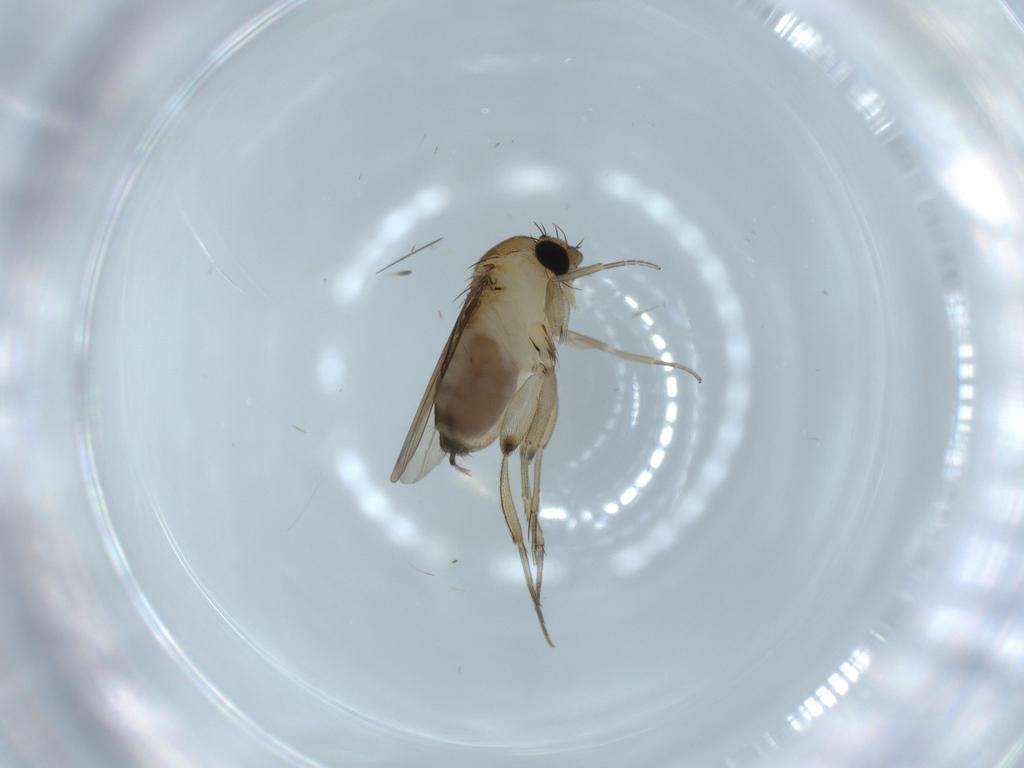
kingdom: Animalia
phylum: Arthropoda
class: Insecta
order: Diptera
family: Phoridae
